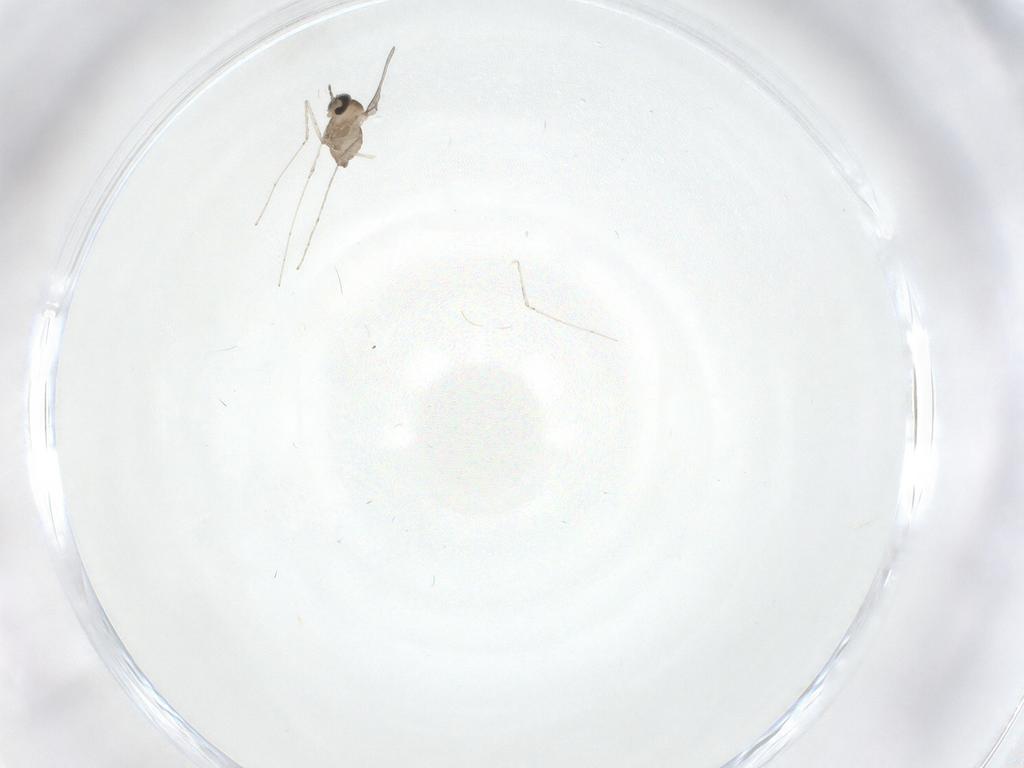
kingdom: Animalia
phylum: Arthropoda
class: Insecta
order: Diptera
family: Cecidomyiidae
